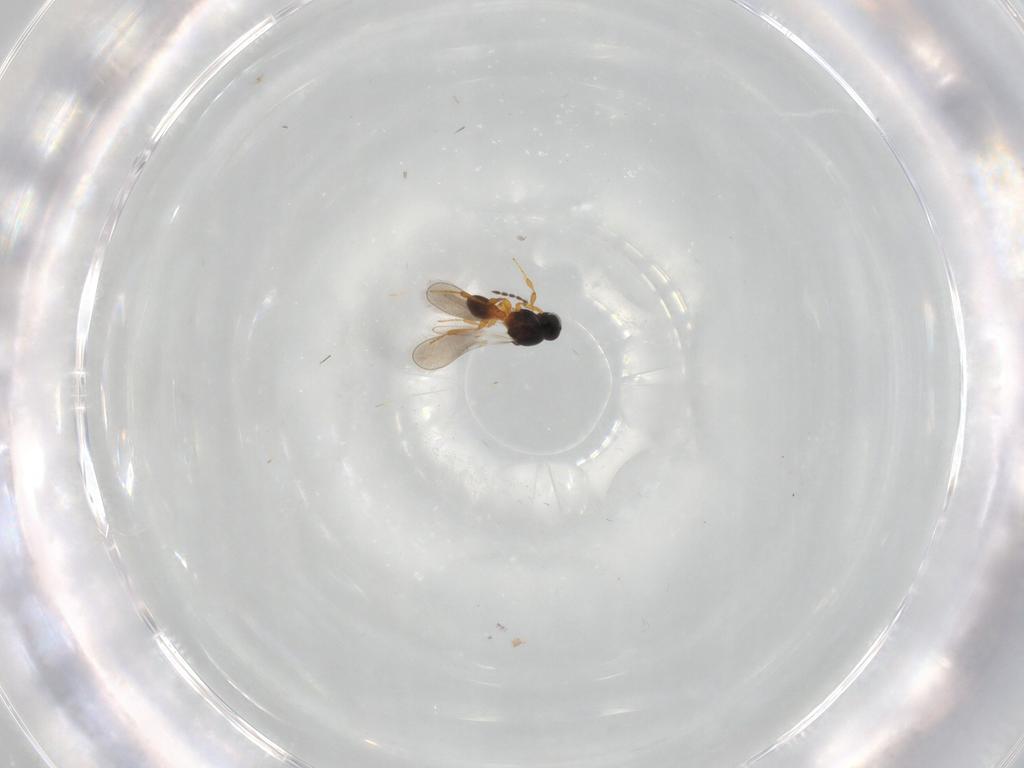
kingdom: Animalia
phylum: Arthropoda
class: Insecta
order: Hymenoptera
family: Platygastridae
